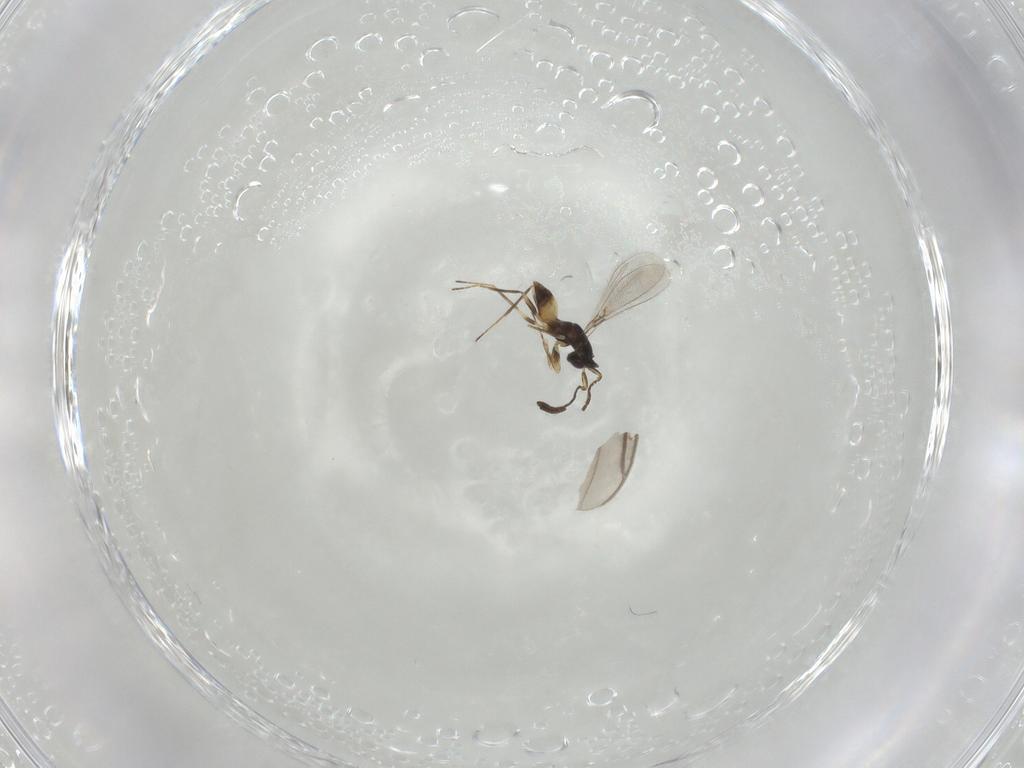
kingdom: Animalia
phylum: Arthropoda
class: Insecta
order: Hymenoptera
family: Mymaridae
